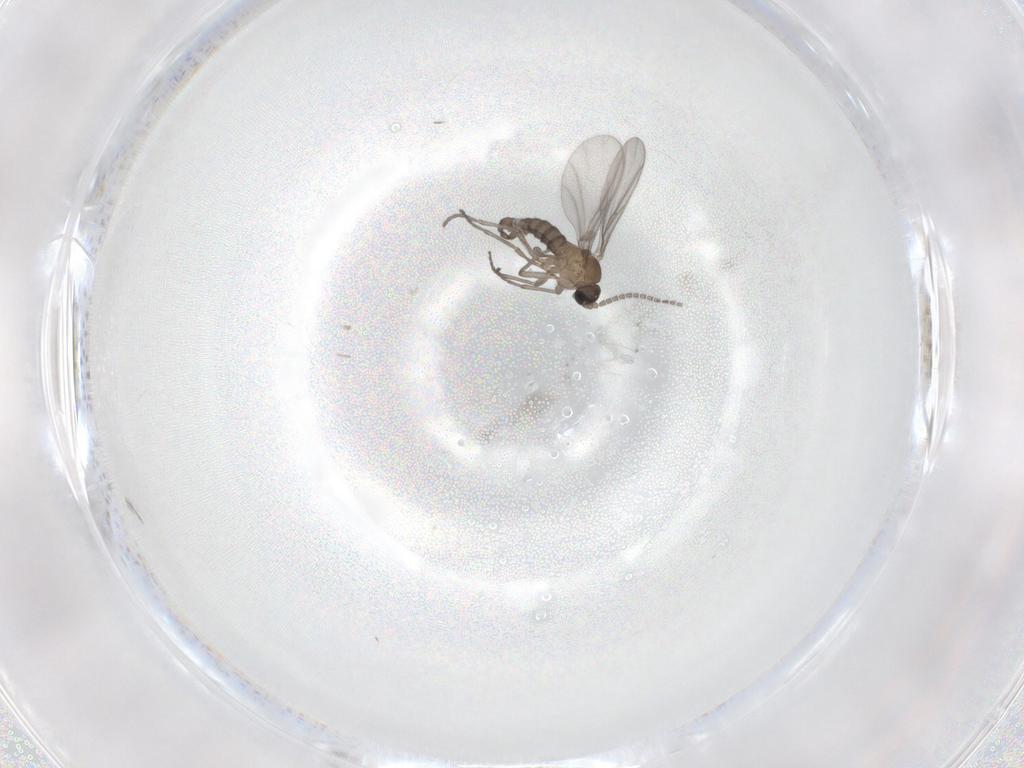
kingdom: Animalia
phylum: Arthropoda
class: Insecta
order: Diptera
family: Sciaridae
